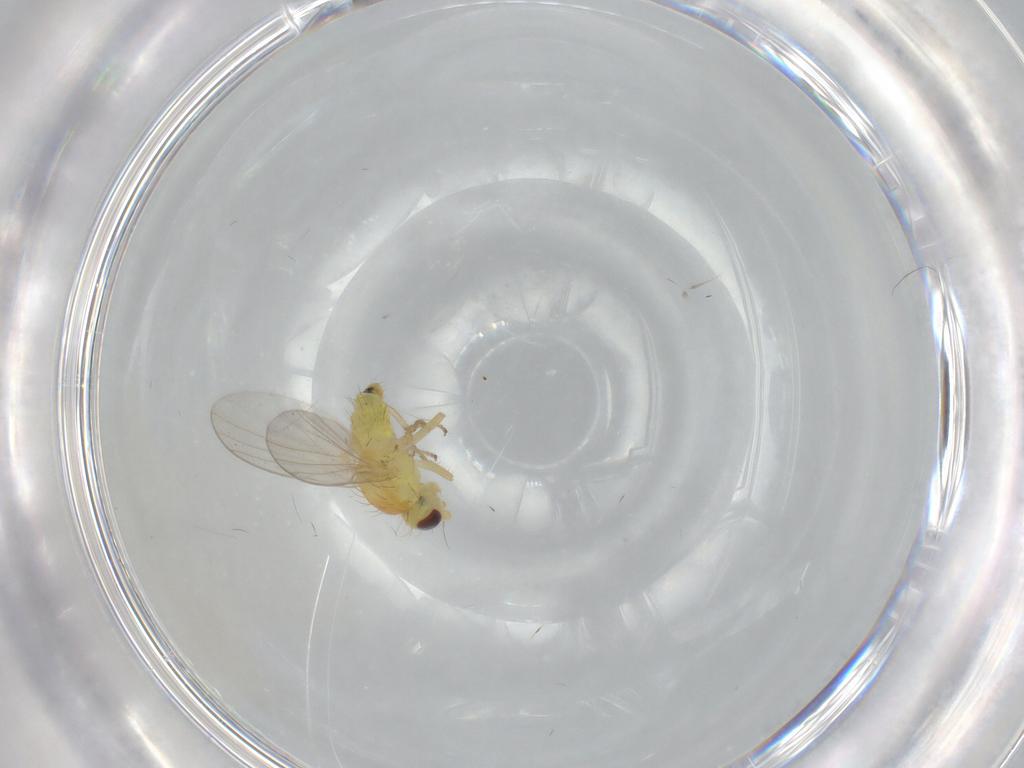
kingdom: Animalia
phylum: Arthropoda
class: Insecta
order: Diptera
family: Agromyzidae
